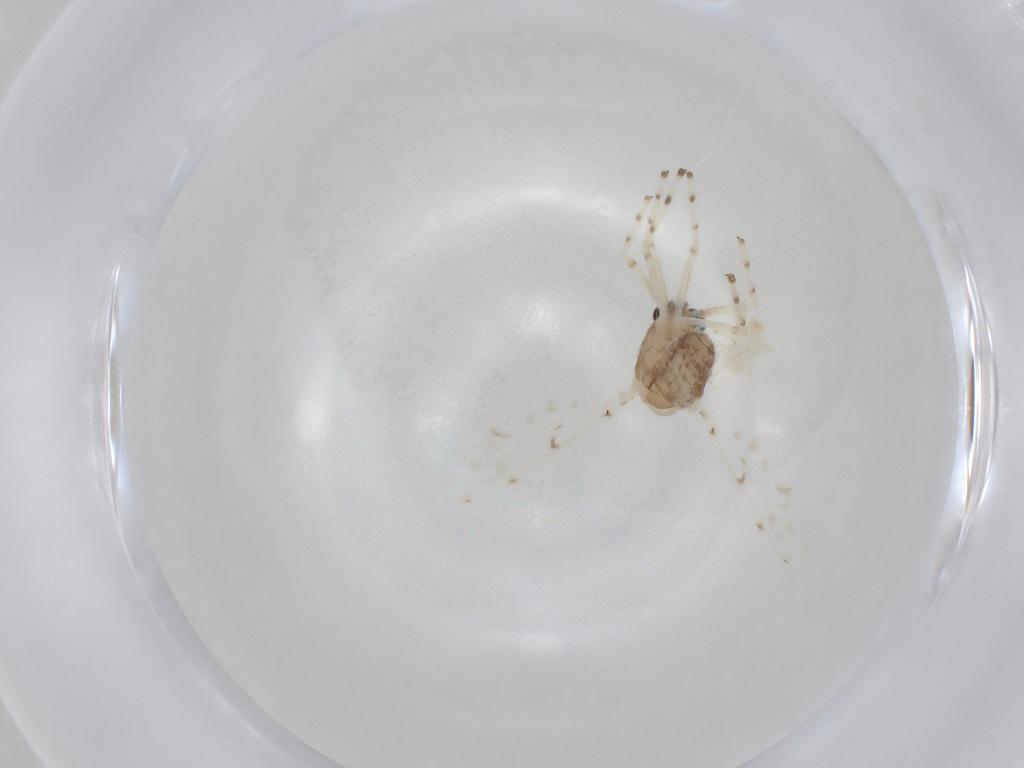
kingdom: Animalia
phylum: Arthropoda
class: Insecta
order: Diptera
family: Chironomidae
